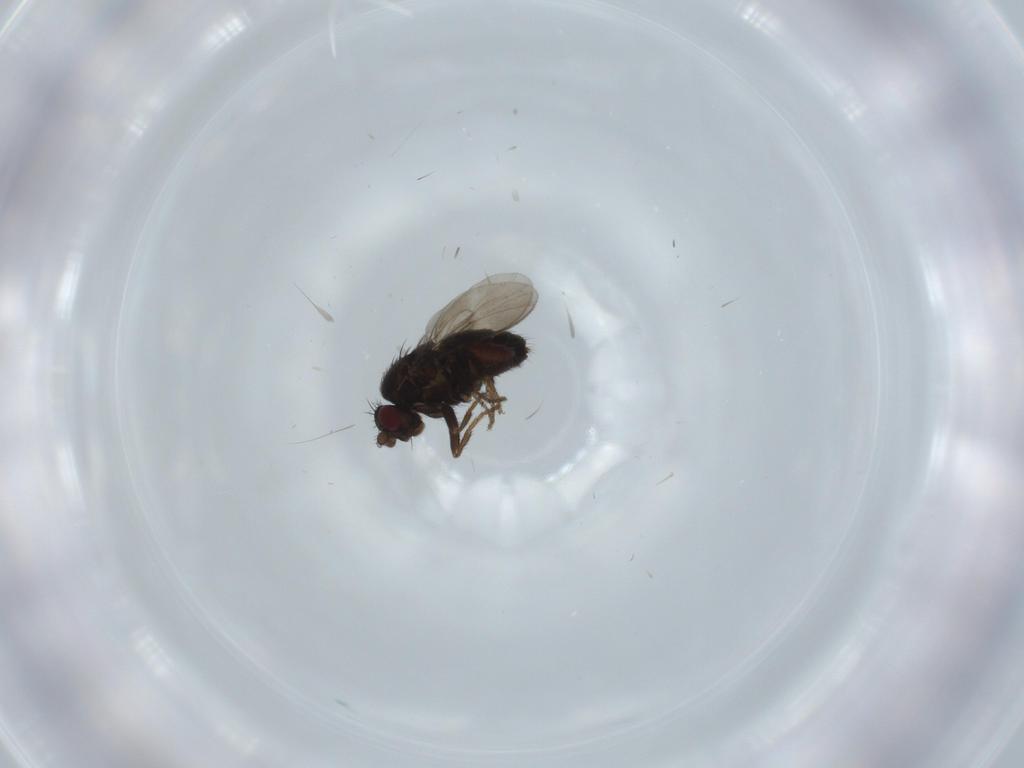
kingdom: Animalia
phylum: Arthropoda
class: Insecta
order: Diptera
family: Sphaeroceridae
